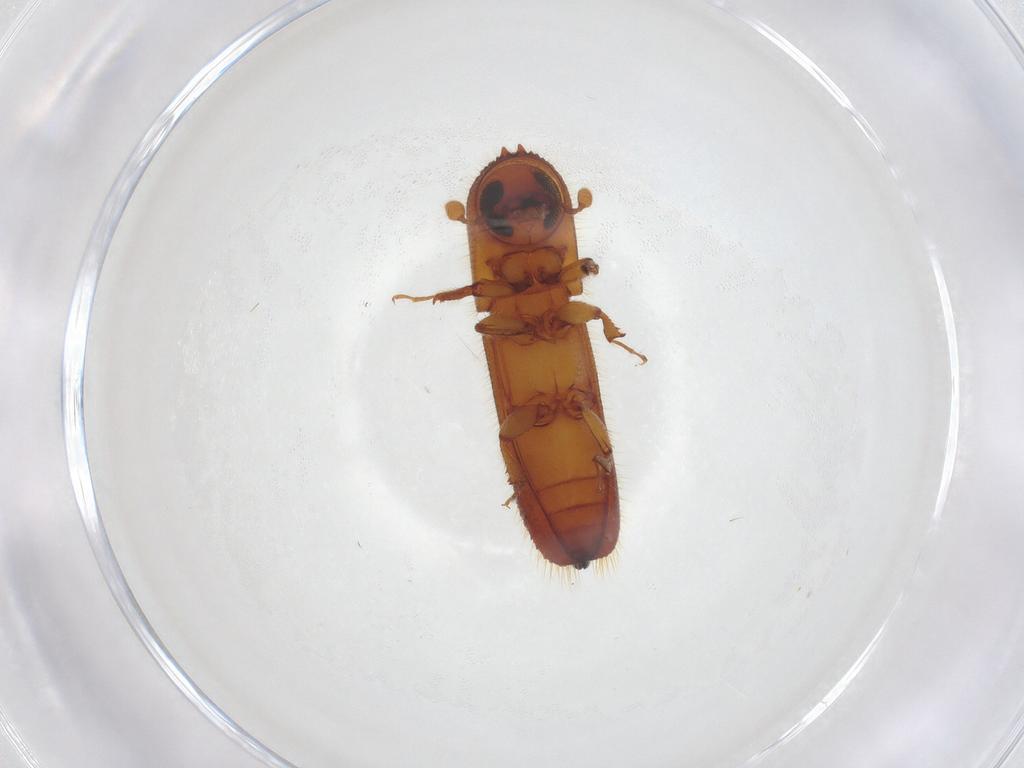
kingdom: Animalia
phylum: Arthropoda
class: Insecta
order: Coleoptera
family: Curculionidae
